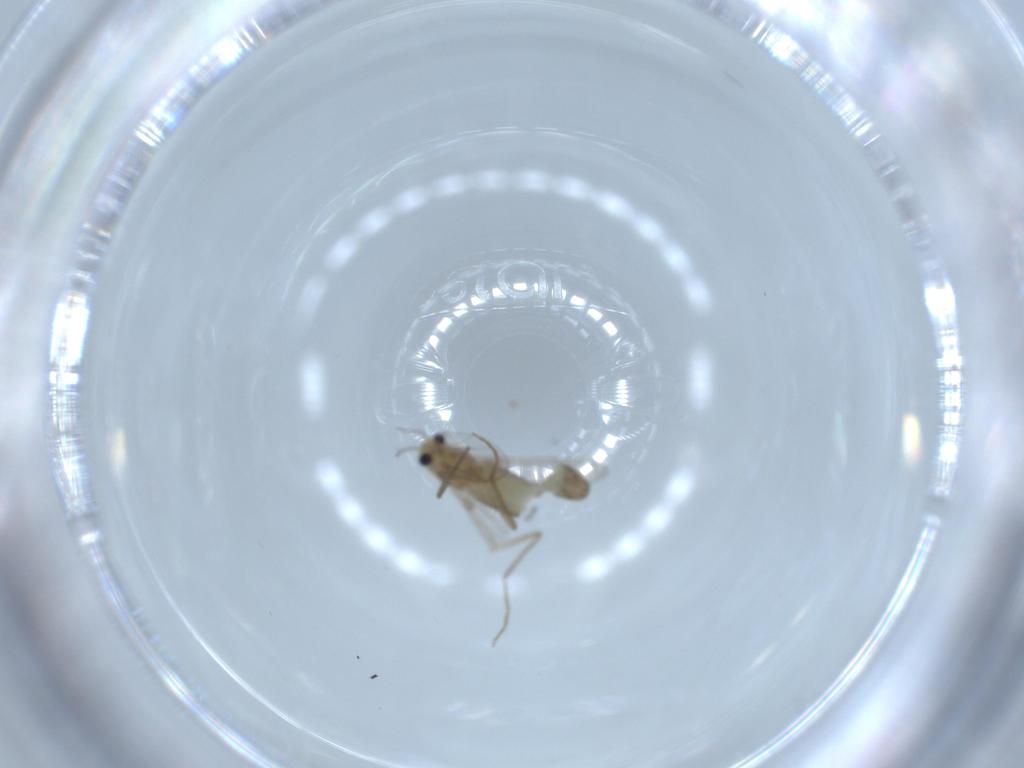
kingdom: Animalia
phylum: Arthropoda
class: Insecta
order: Diptera
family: Chironomidae
